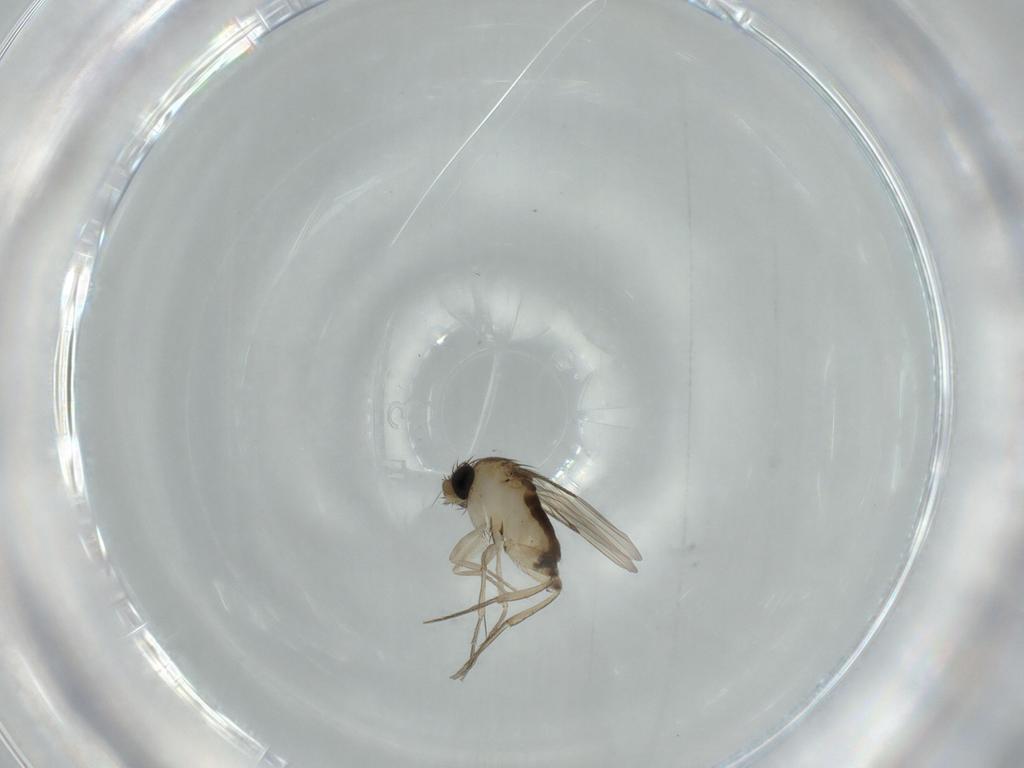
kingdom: Animalia
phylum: Arthropoda
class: Insecta
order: Diptera
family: Phoridae
